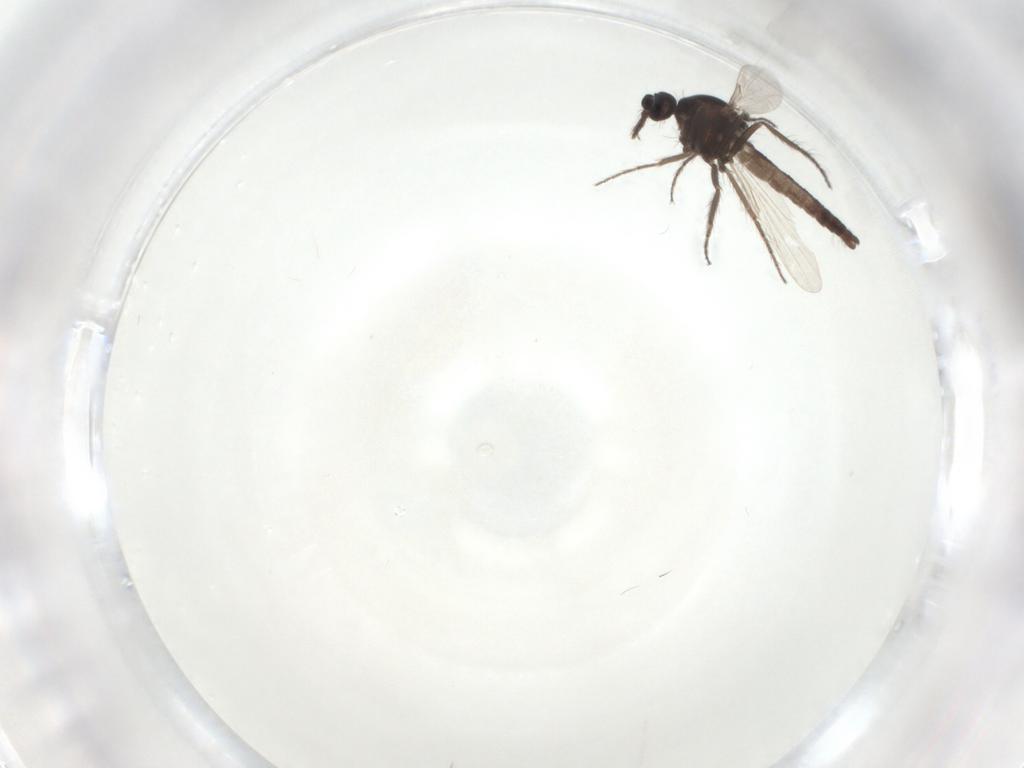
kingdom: Animalia
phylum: Arthropoda
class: Insecta
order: Diptera
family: Ceratopogonidae
